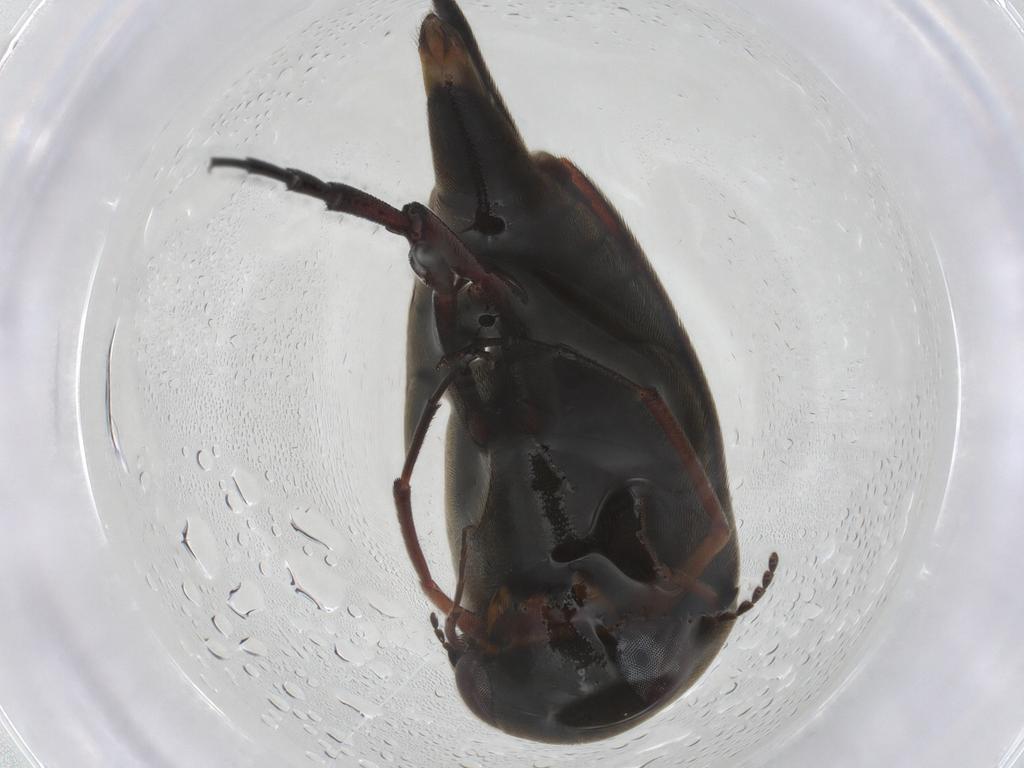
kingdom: Animalia
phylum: Arthropoda
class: Insecta
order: Coleoptera
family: Mordellidae
